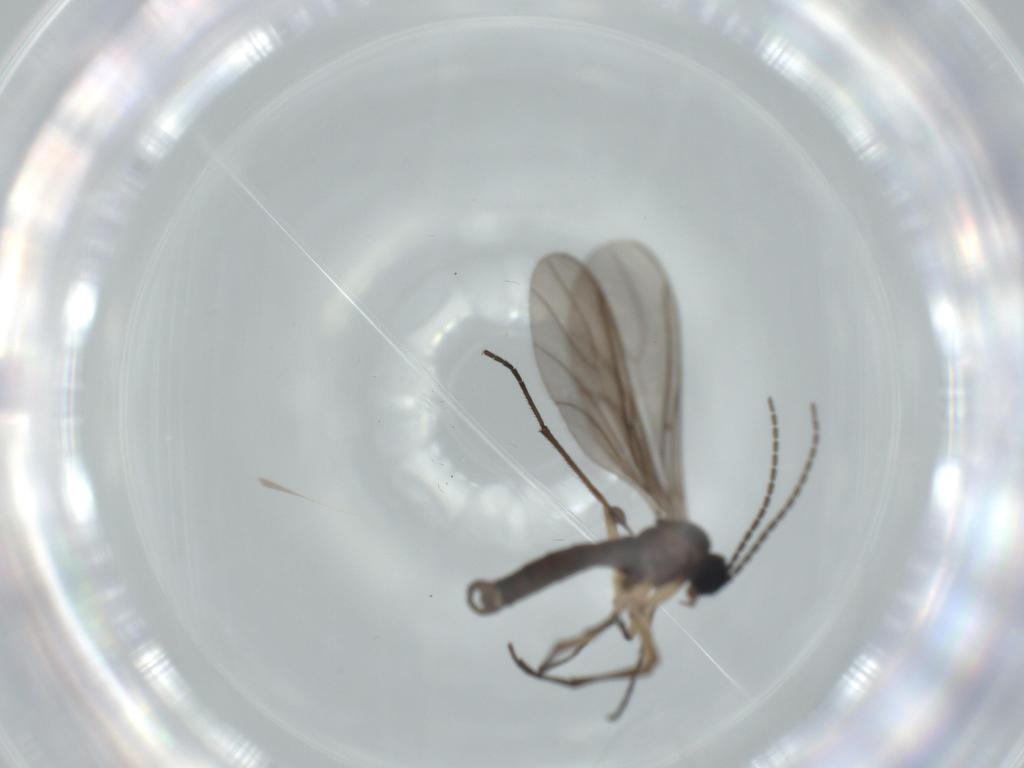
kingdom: Animalia
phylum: Arthropoda
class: Insecta
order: Diptera
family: Sciaridae
